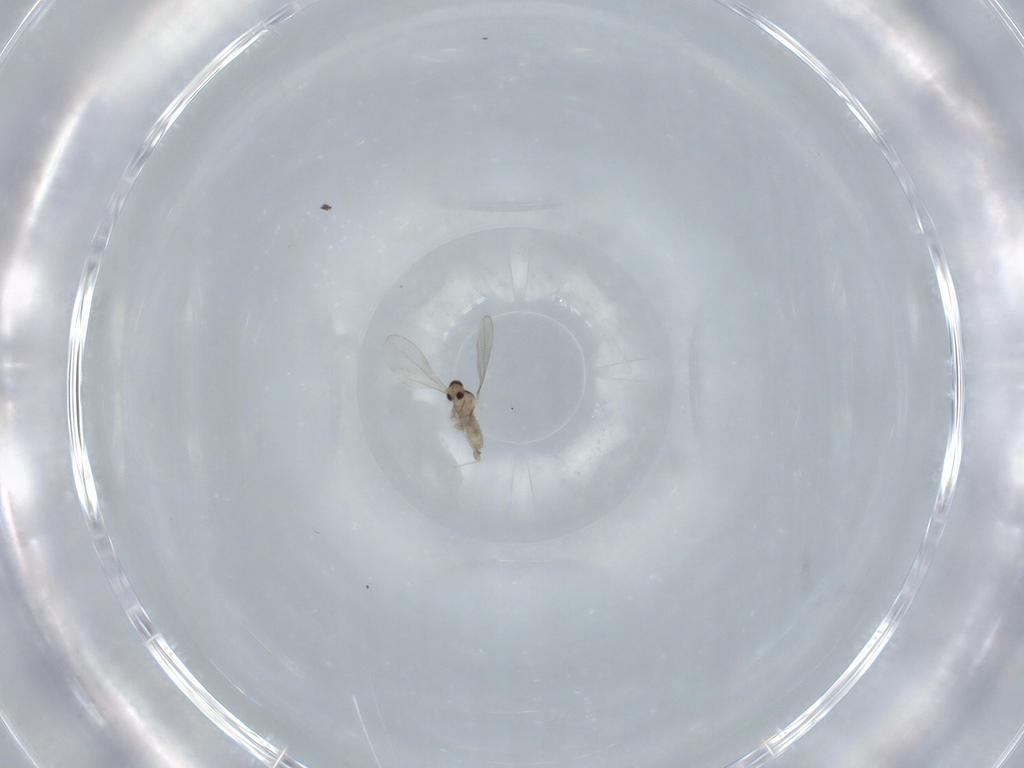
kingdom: Animalia
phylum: Arthropoda
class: Insecta
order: Diptera
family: Cecidomyiidae
